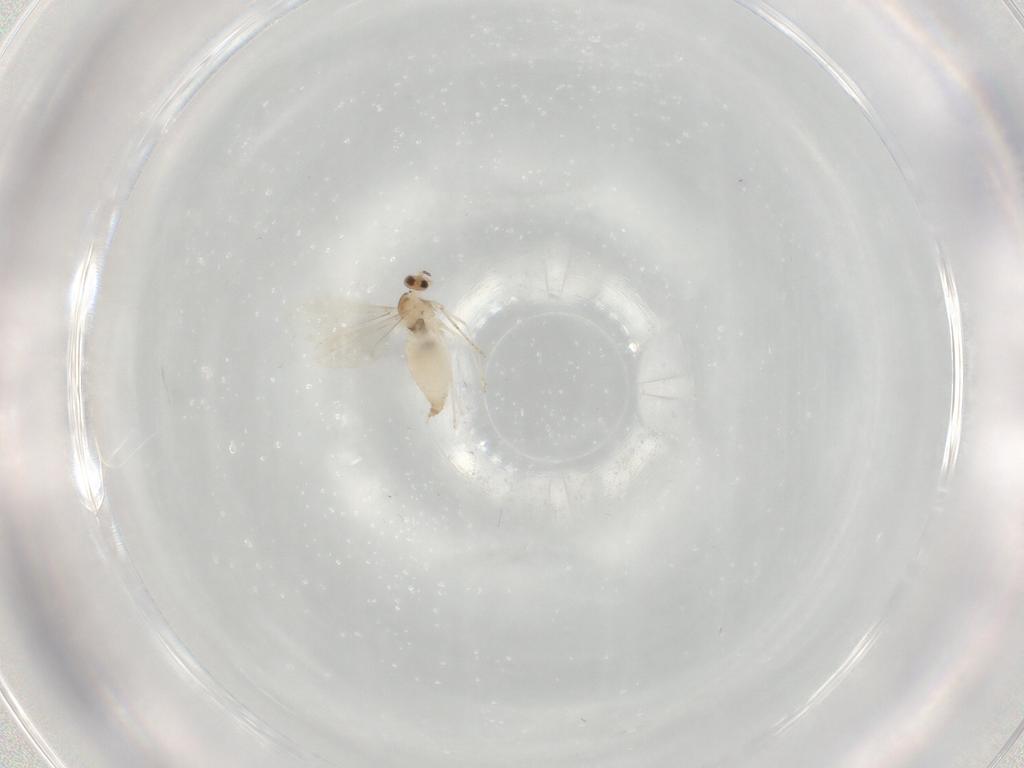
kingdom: Animalia
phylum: Arthropoda
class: Insecta
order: Diptera
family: Cecidomyiidae
